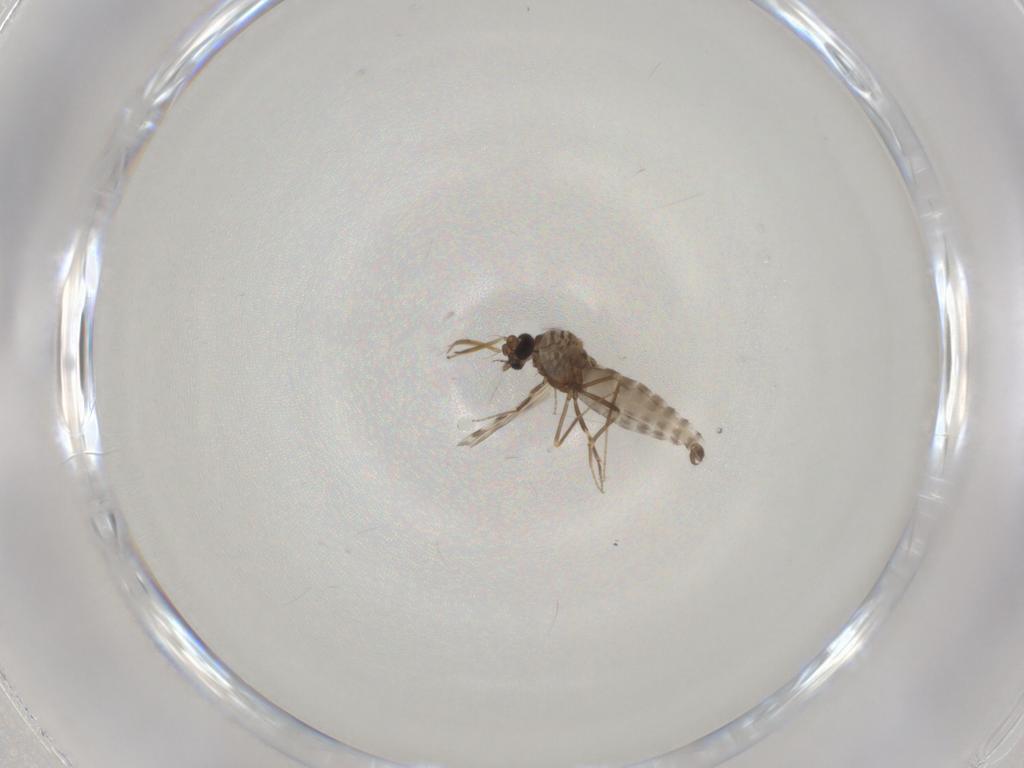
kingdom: Animalia
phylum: Arthropoda
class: Insecta
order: Diptera
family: Ceratopogonidae
